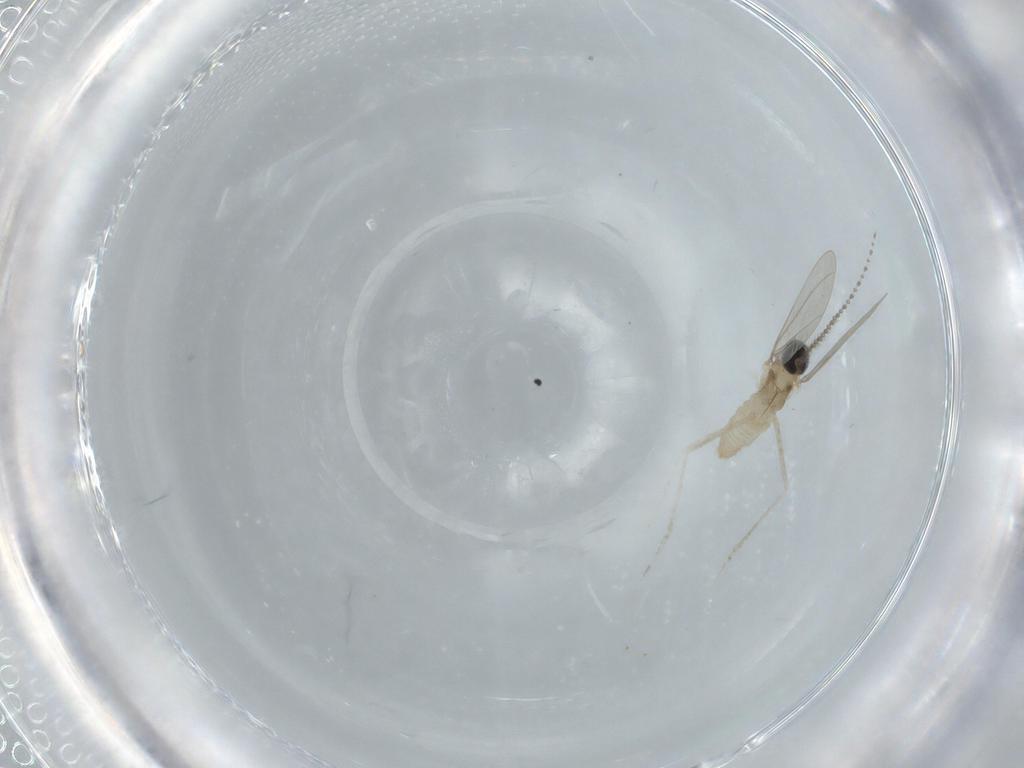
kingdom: Animalia
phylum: Arthropoda
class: Insecta
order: Diptera
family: Milichiidae
